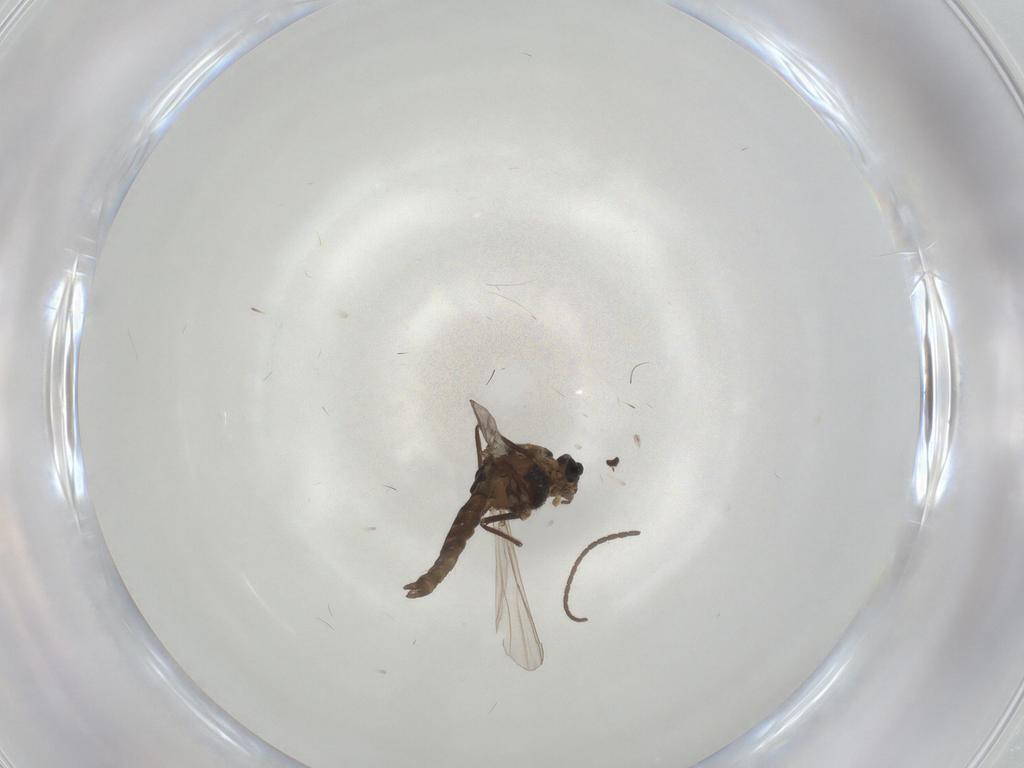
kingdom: Animalia
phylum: Arthropoda
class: Insecta
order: Diptera
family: Chironomidae
